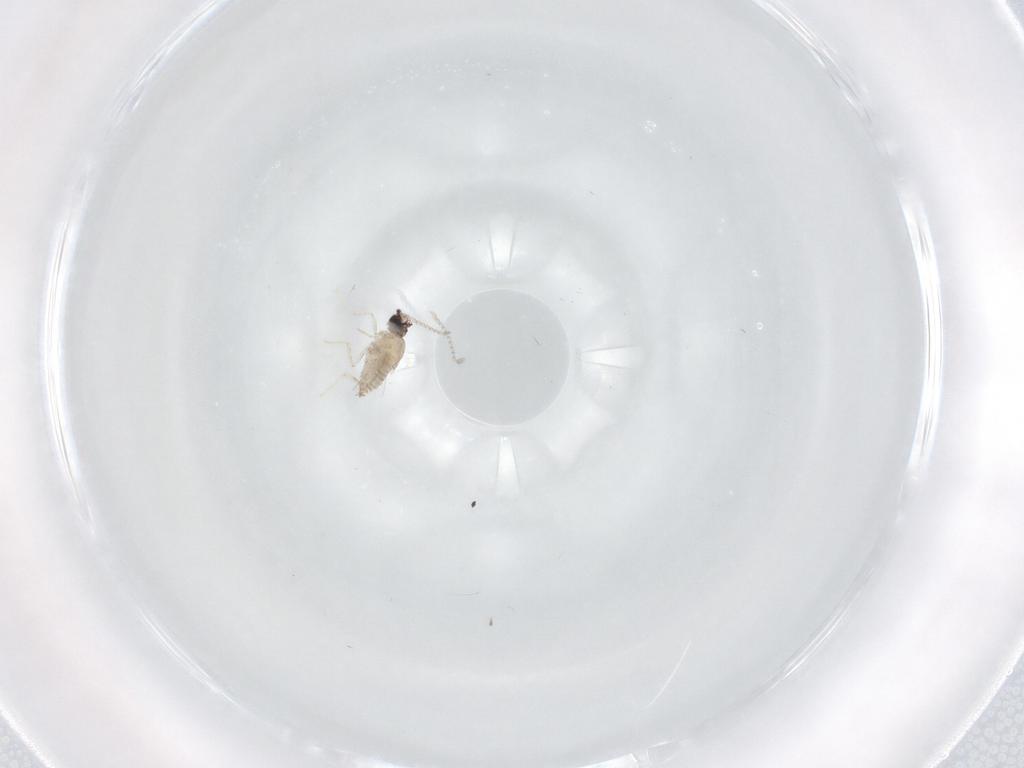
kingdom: Animalia
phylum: Arthropoda
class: Insecta
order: Diptera
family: Cecidomyiidae
